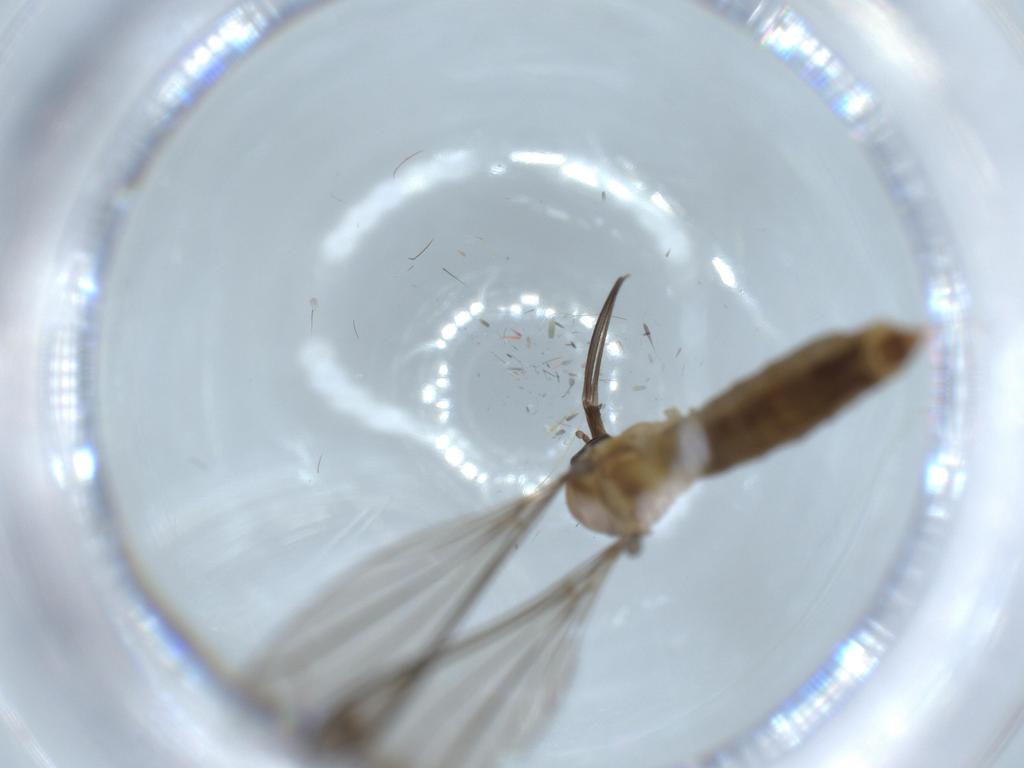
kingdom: Animalia
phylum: Arthropoda
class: Insecta
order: Diptera
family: Sphaeroceridae
